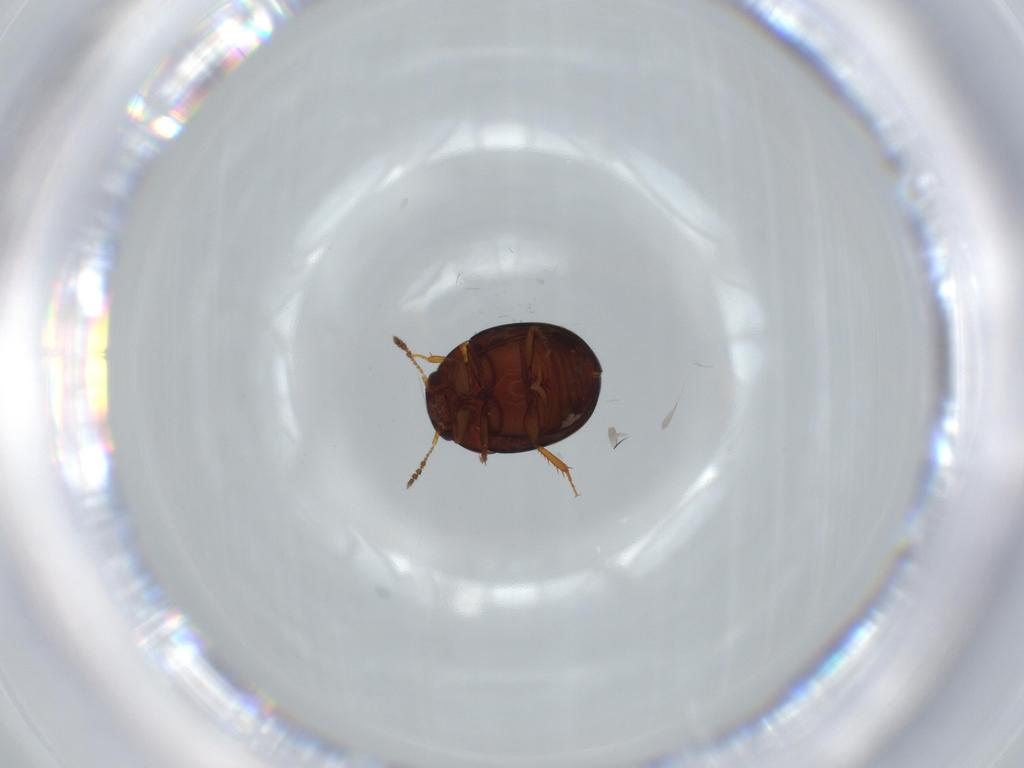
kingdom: Animalia
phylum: Arthropoda
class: Insecta
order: Coleoptera
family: Leiodidae
